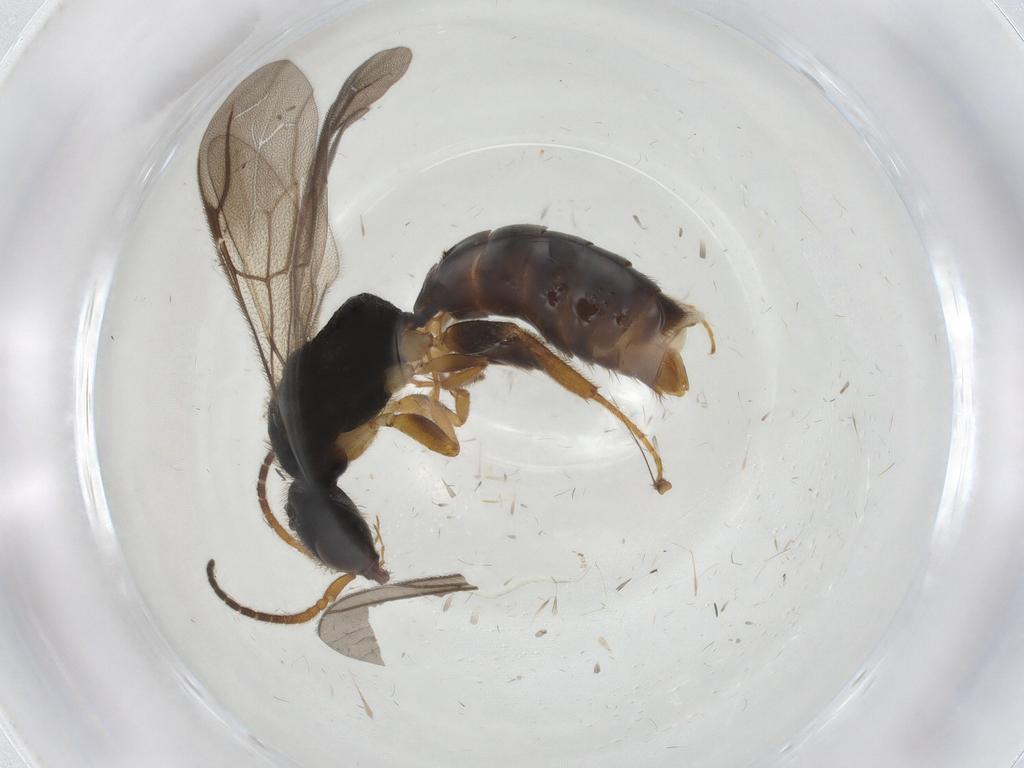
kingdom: Animalia
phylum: Arthropoda
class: Insecta
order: Hymenoptera
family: Bethylidae
